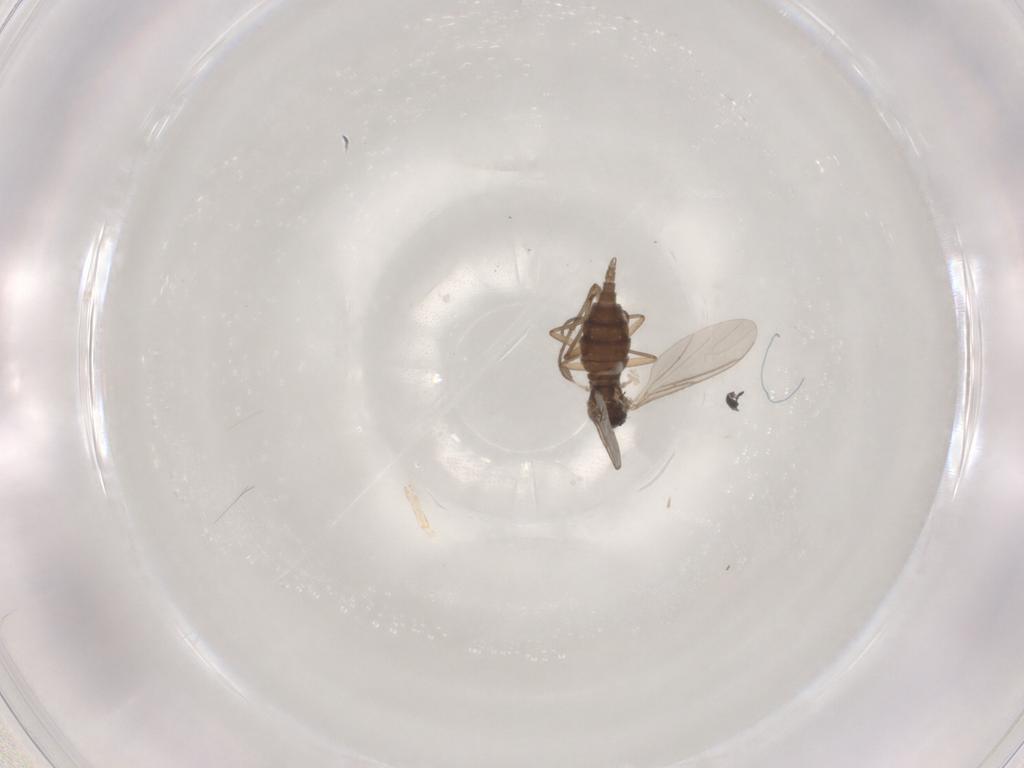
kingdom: Animalia
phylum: Arthropoda
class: Insecta
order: Diptera
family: Sciaridae
